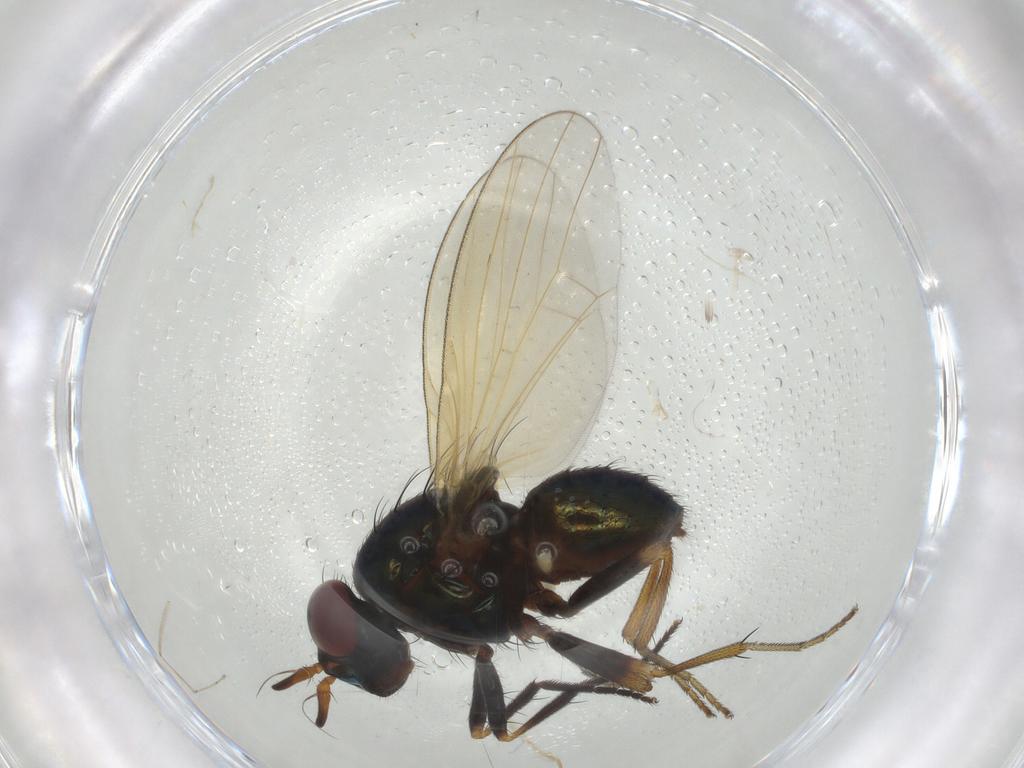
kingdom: Animalia
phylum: Arthropoda
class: Insecta
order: Diptera
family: Lauxaniidae
